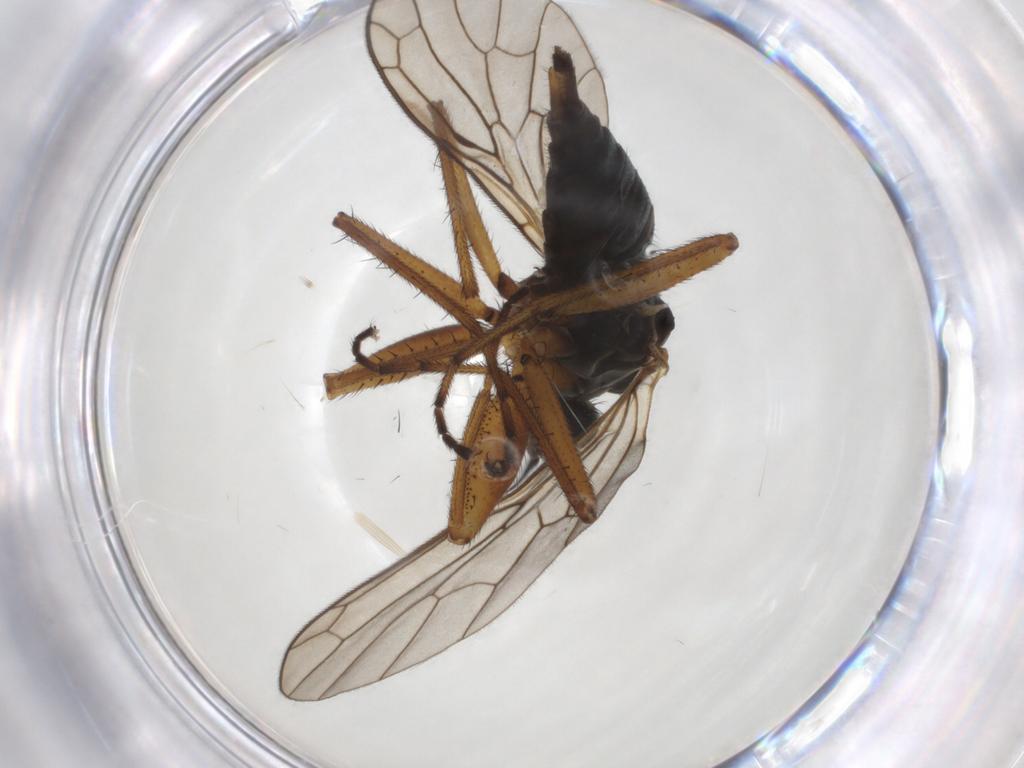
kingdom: Animalia
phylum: Arthropoda
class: Insecta
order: Diptera
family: Empididae
